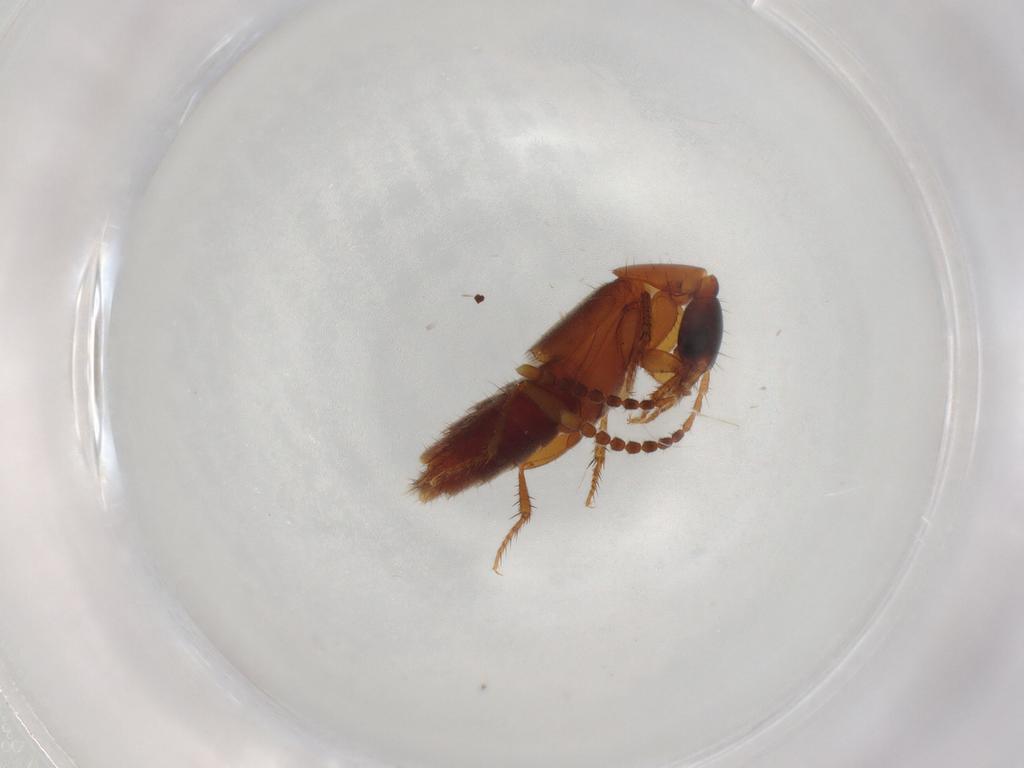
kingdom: Animalia
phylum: Arthropoda
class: Insecta
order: Coleoptera
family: Staphylinidae
